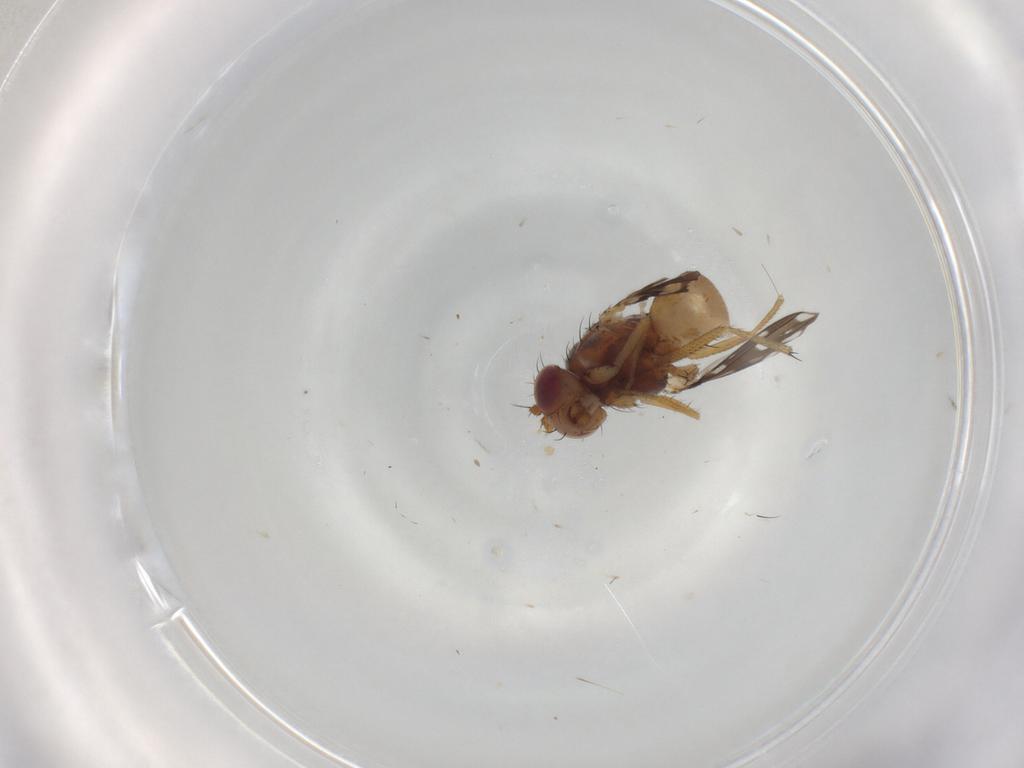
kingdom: Animalia
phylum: Arthropoda
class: Insecta
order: Diptera
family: Ephydridae
